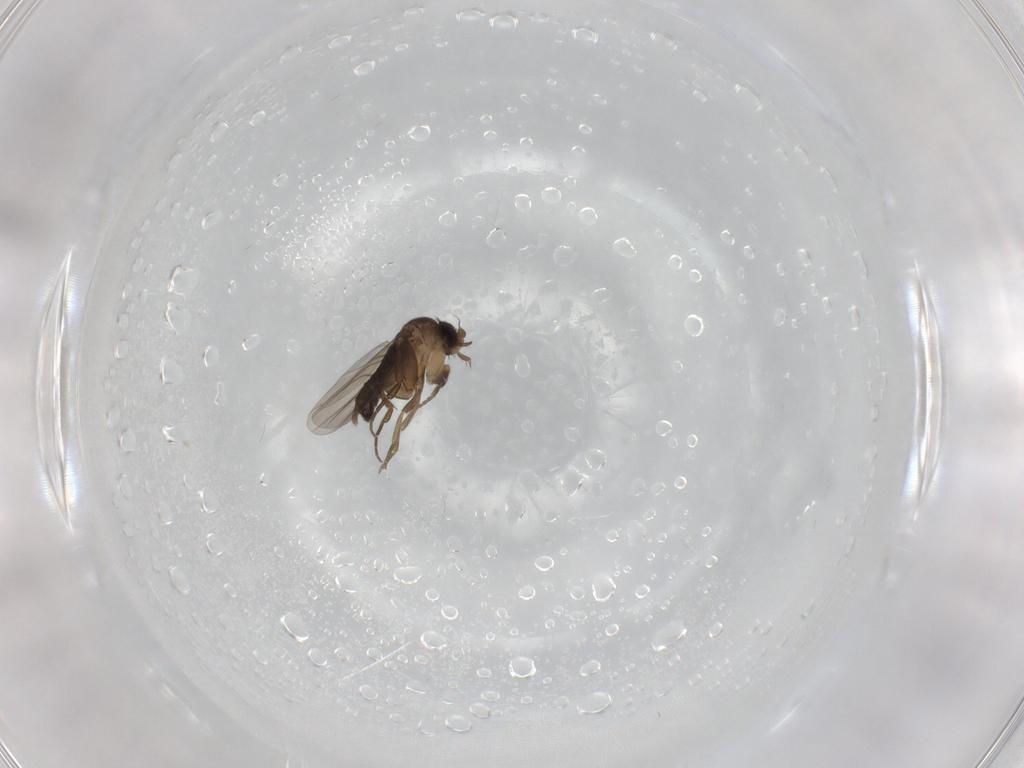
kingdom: Animalia
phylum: Arthropoda
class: Insecta
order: Diptera
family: Phoridae
